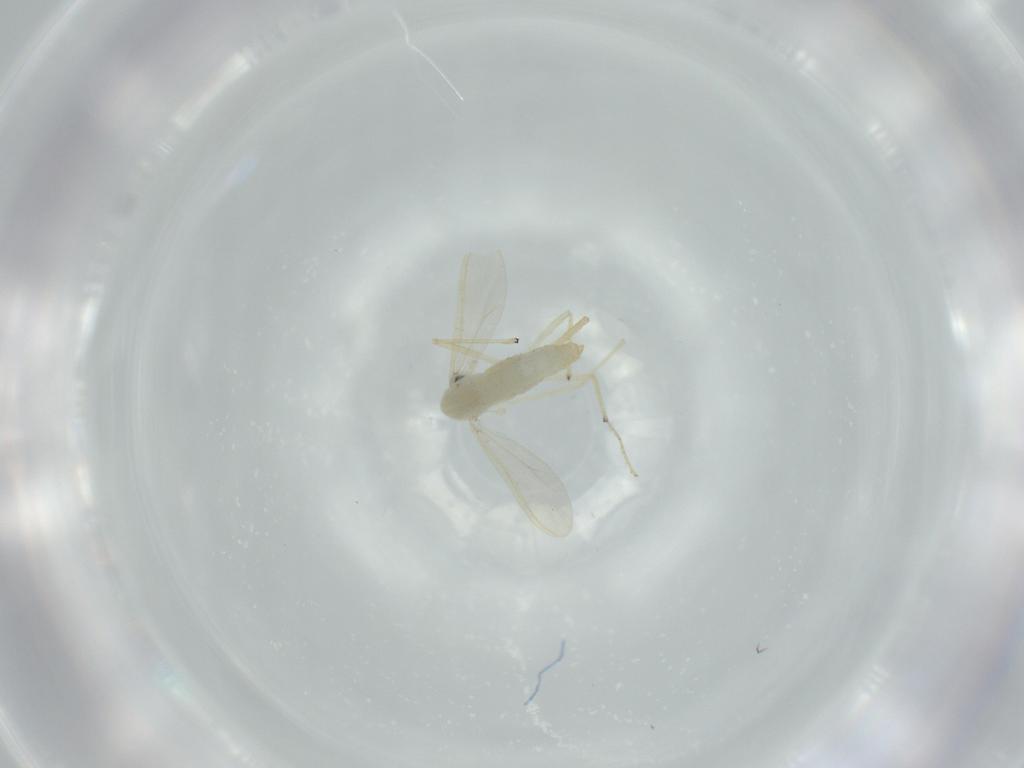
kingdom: Animalia
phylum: Arthropoda
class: Insecta
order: Diptera
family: Chironomidae
